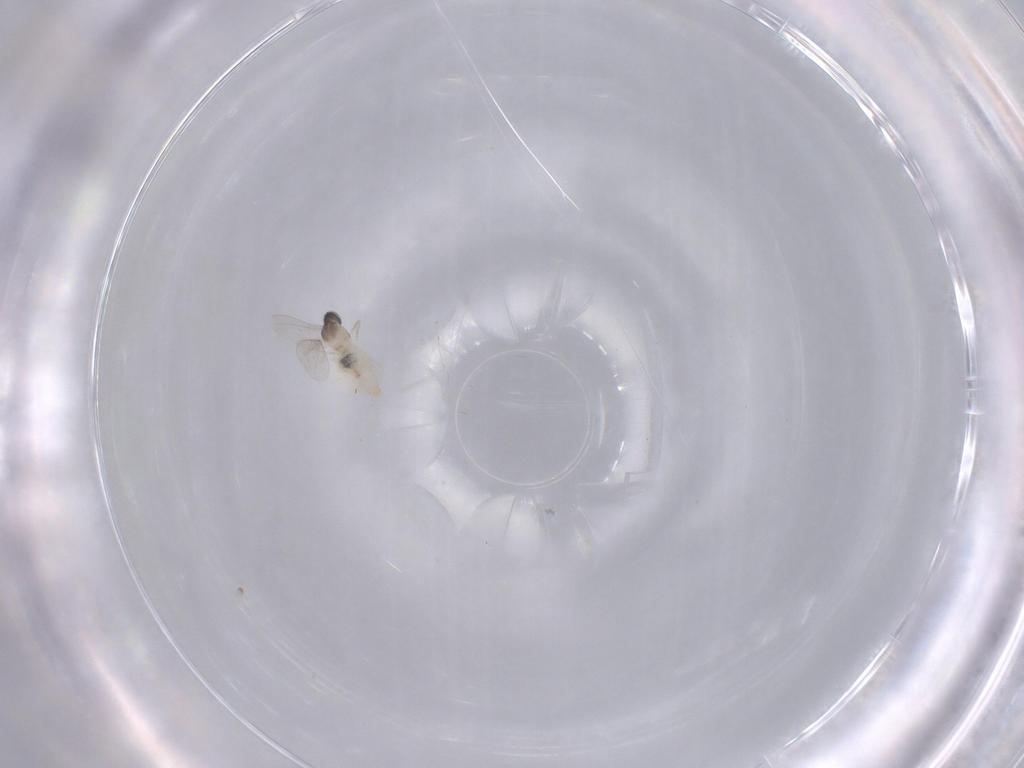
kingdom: Animalia
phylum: Arthropoda
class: Insecta
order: Diptera
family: Cecidomyiidae
